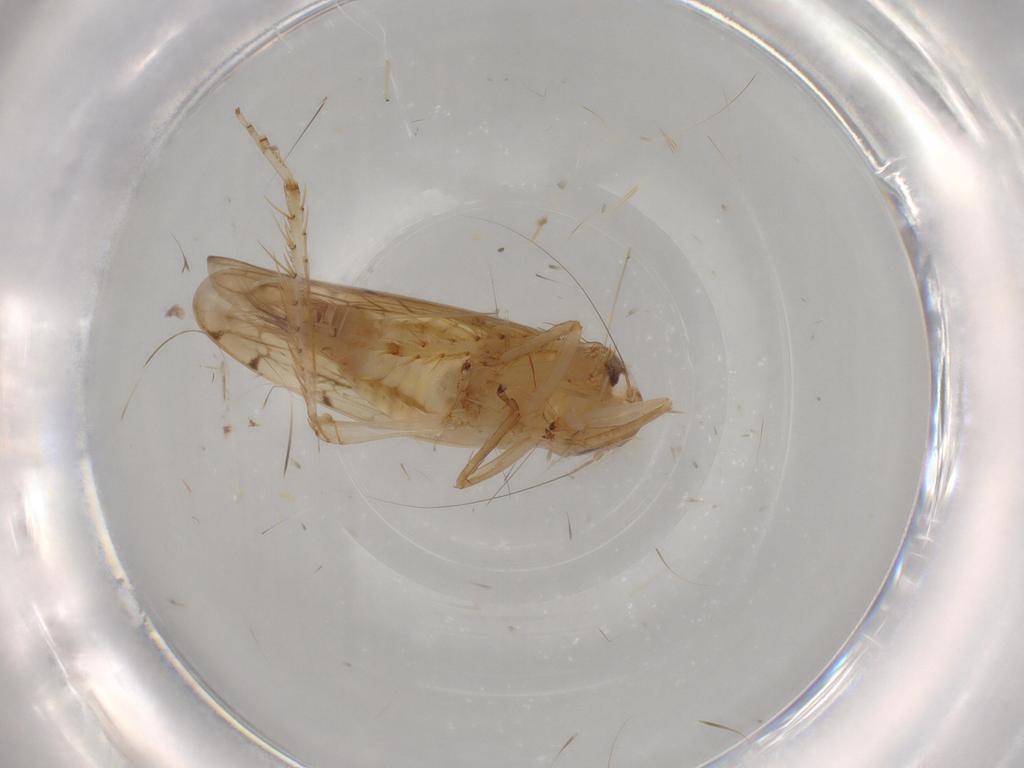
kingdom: Animalia
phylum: Arthropoda
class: Insecta
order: Hemiptera
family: Cicadellidae
